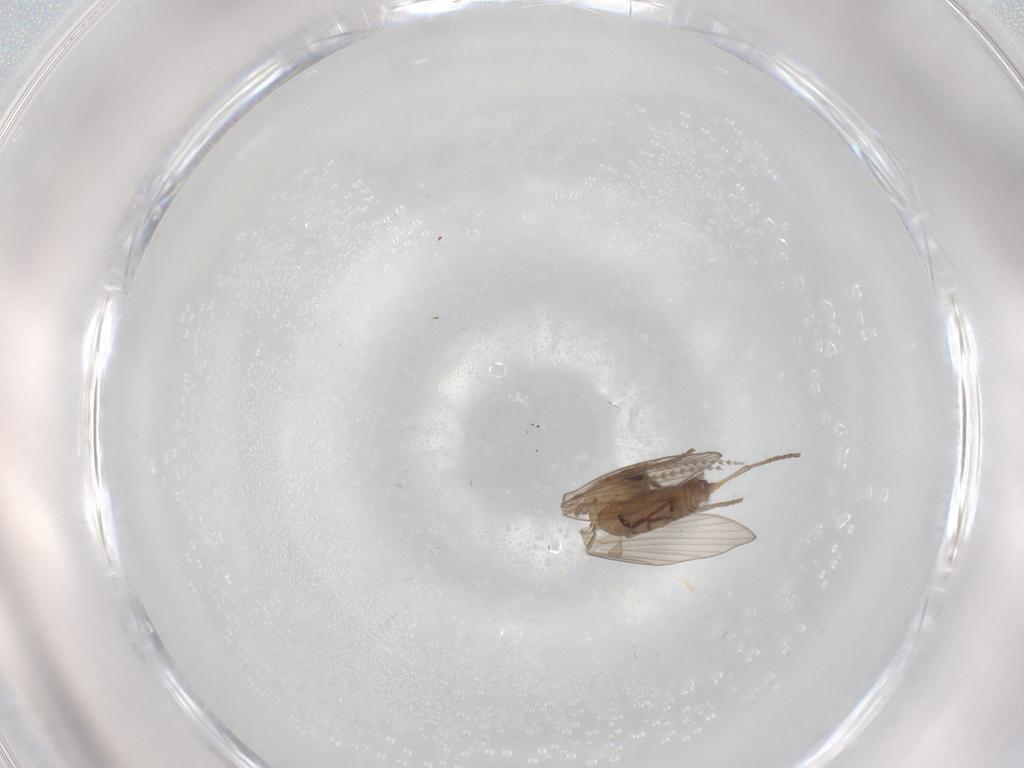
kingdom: Animalia
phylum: Arthropoda
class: Insecta
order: Diptera
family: Psychodidae
